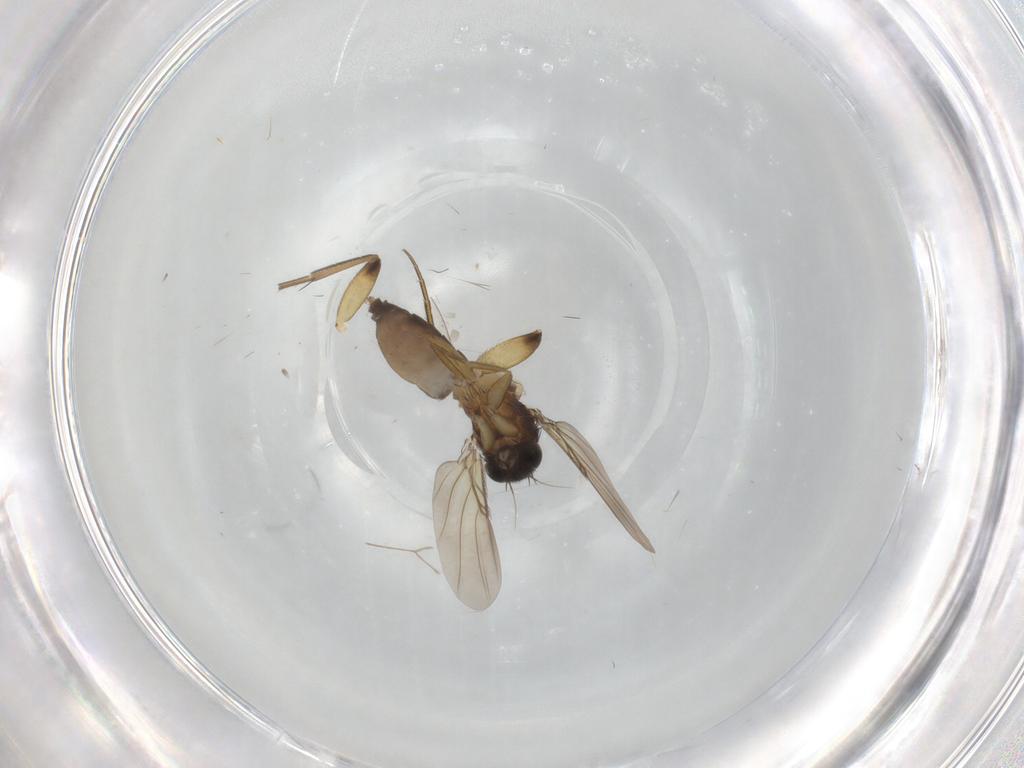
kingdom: Animalia
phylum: Arthropoda
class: Insecta
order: Diptera
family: Phoridae
